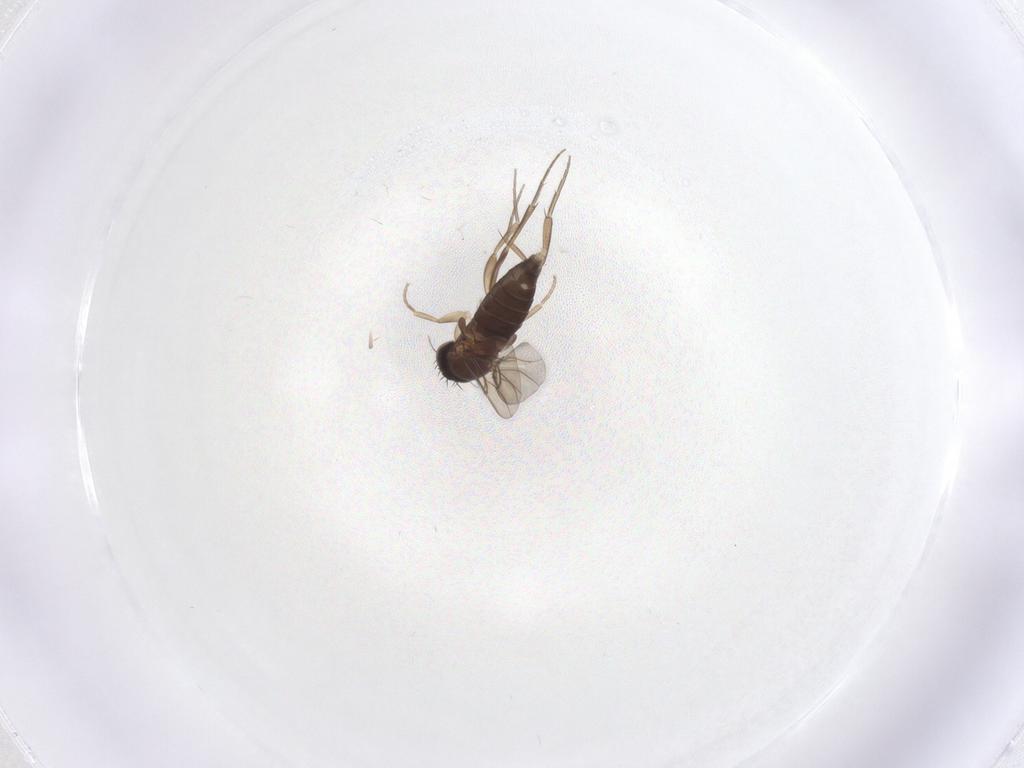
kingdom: Animalia
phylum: Arthropoda
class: Insecta
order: Diptera
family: Phoridae
